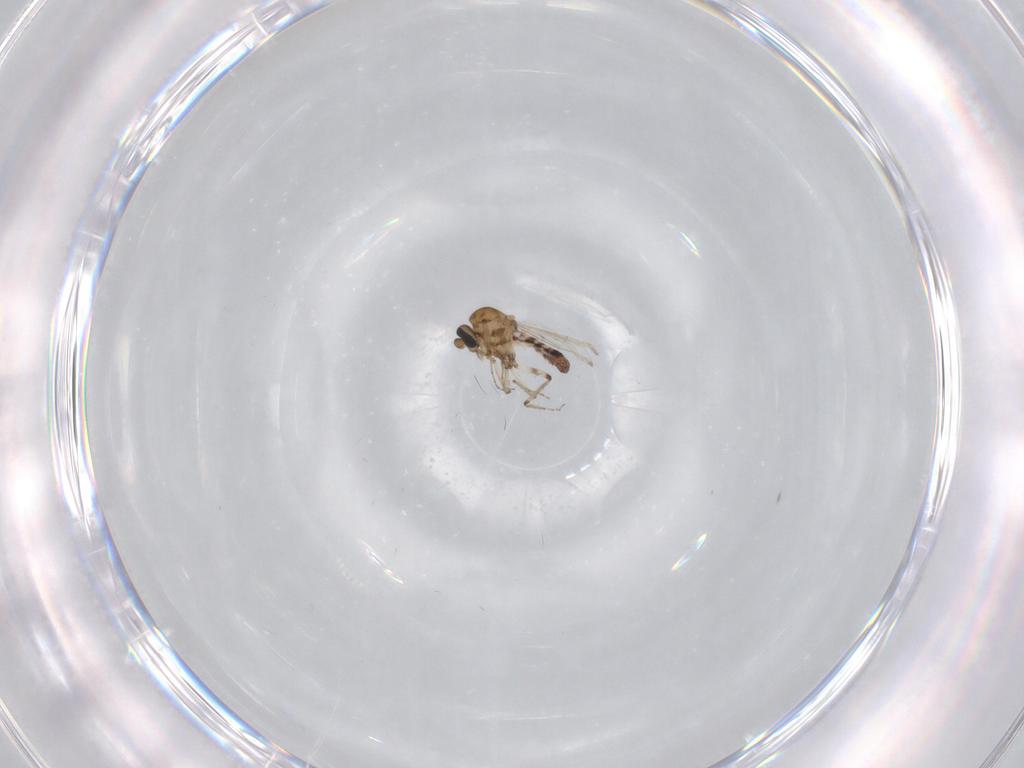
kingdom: Animalia
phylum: Arthropoda
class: Insecta
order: Diptera
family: Ceratopogonidae
